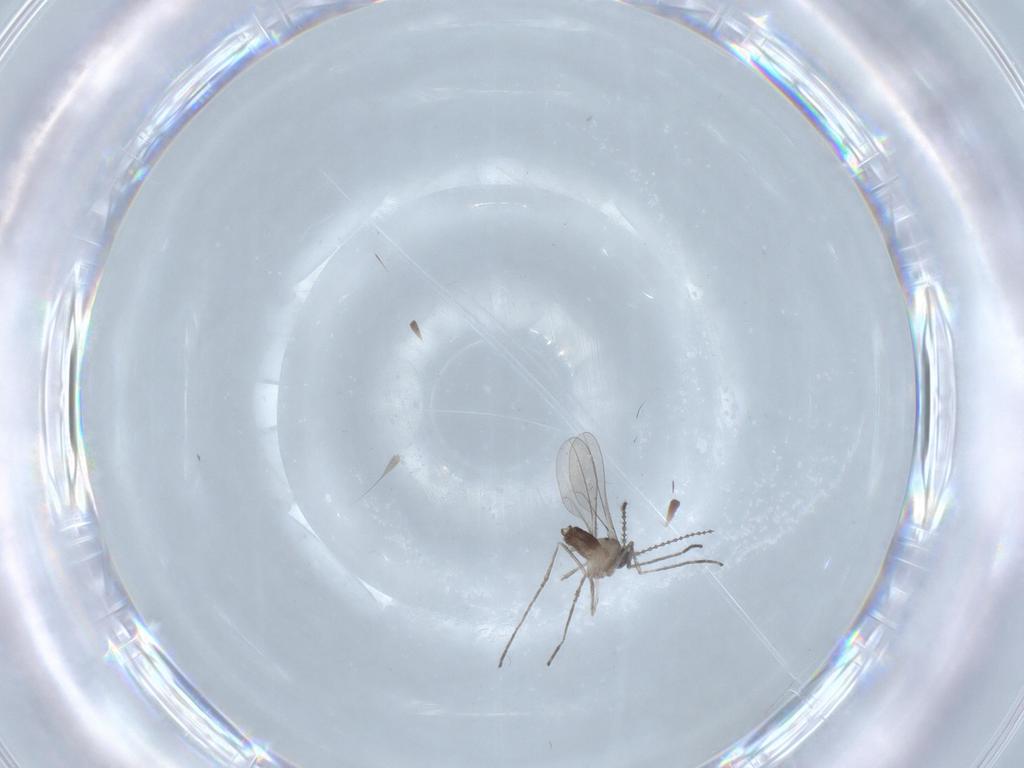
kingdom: Animalia
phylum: Arthropoda
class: Insecta
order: Diptera
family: Cecidomyiidae
